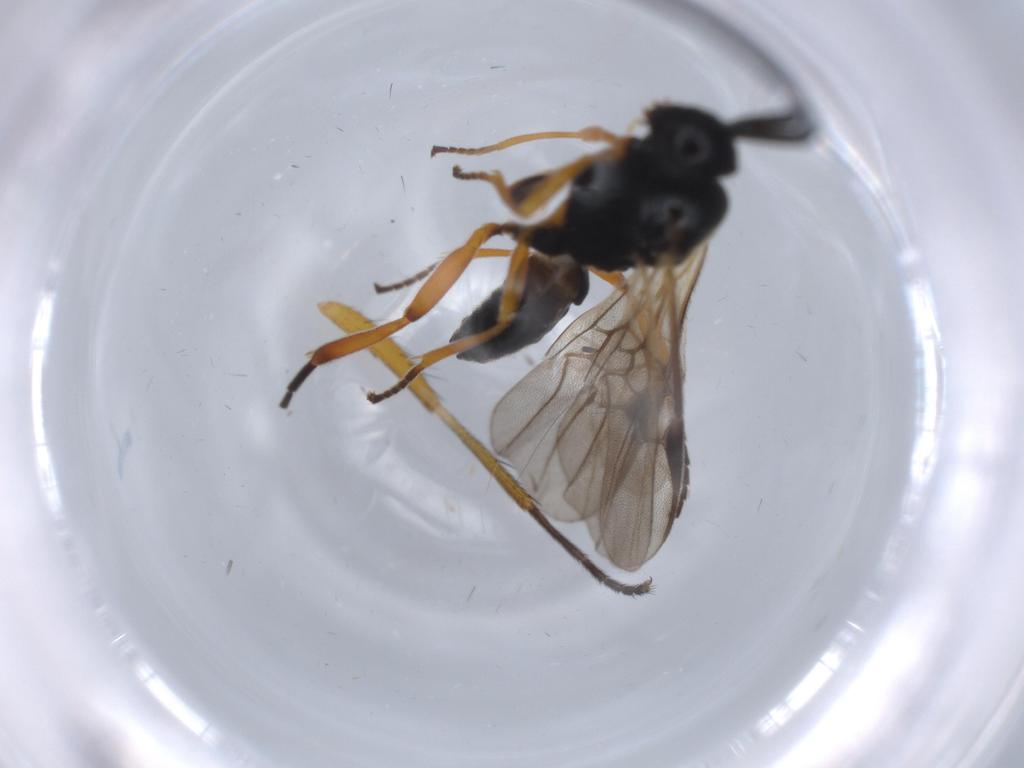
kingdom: Animalia
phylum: Arthropoda
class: Insecta
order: Hymenoptera
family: Braconidae
